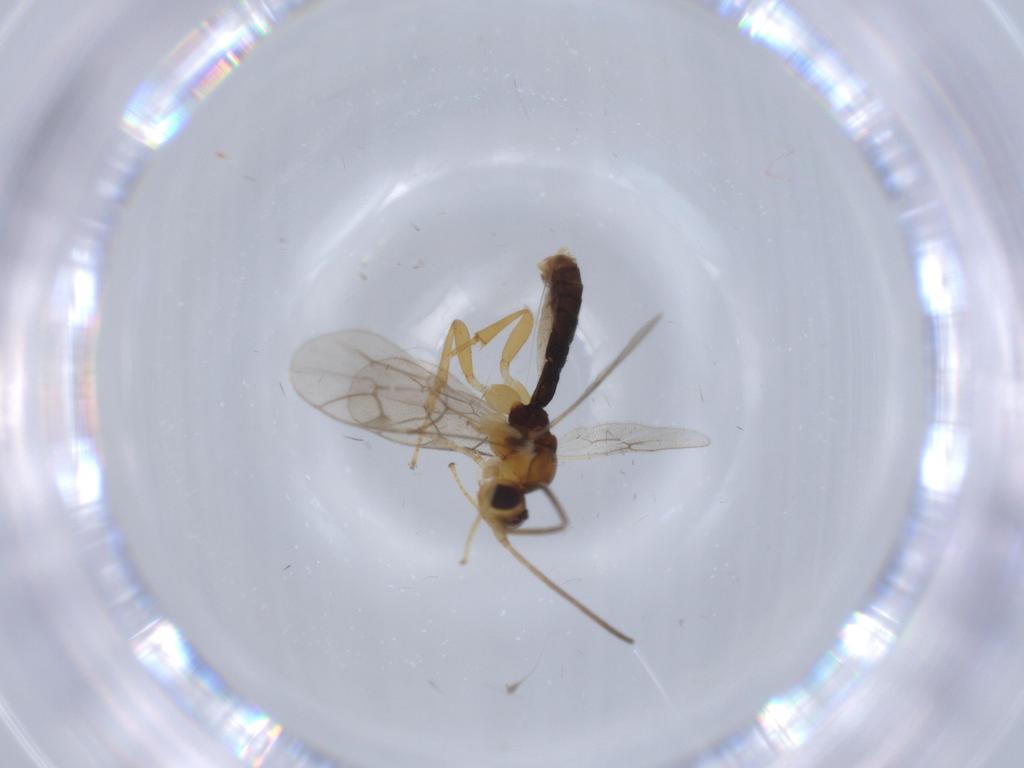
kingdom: Animalia
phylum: Arthropoda
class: Insecta
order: Hymenoptera
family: Ichneumonidae
